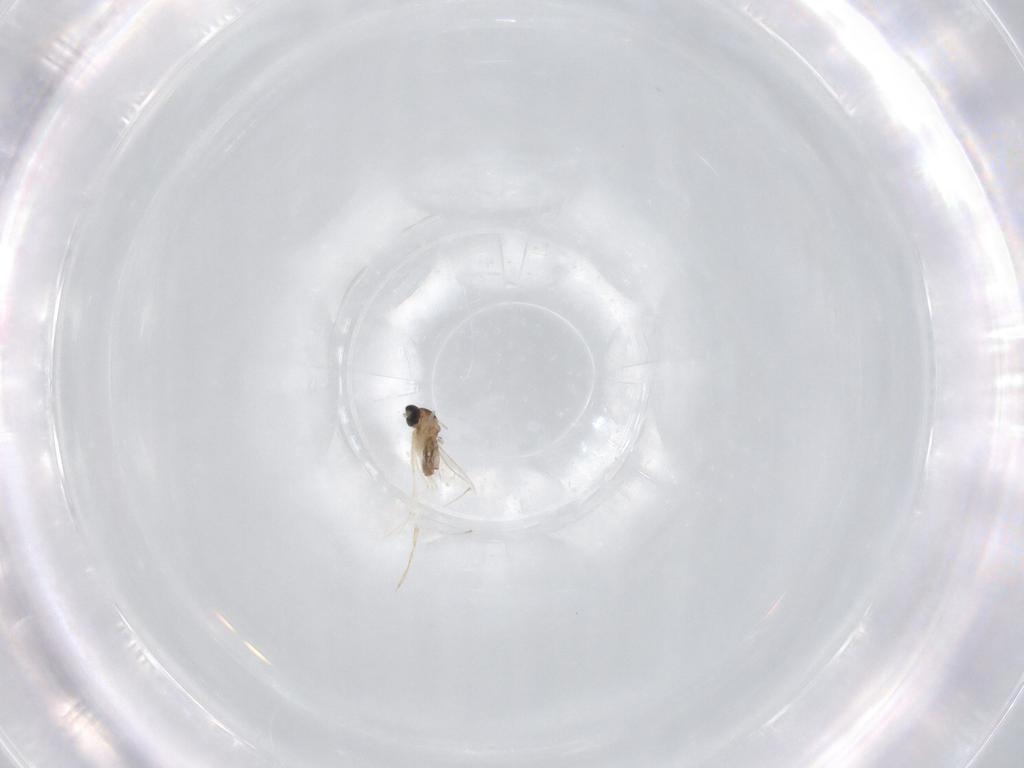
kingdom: Animalia
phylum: Arthropoda
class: Insecta
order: Diptera
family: Cecidomyiidae
